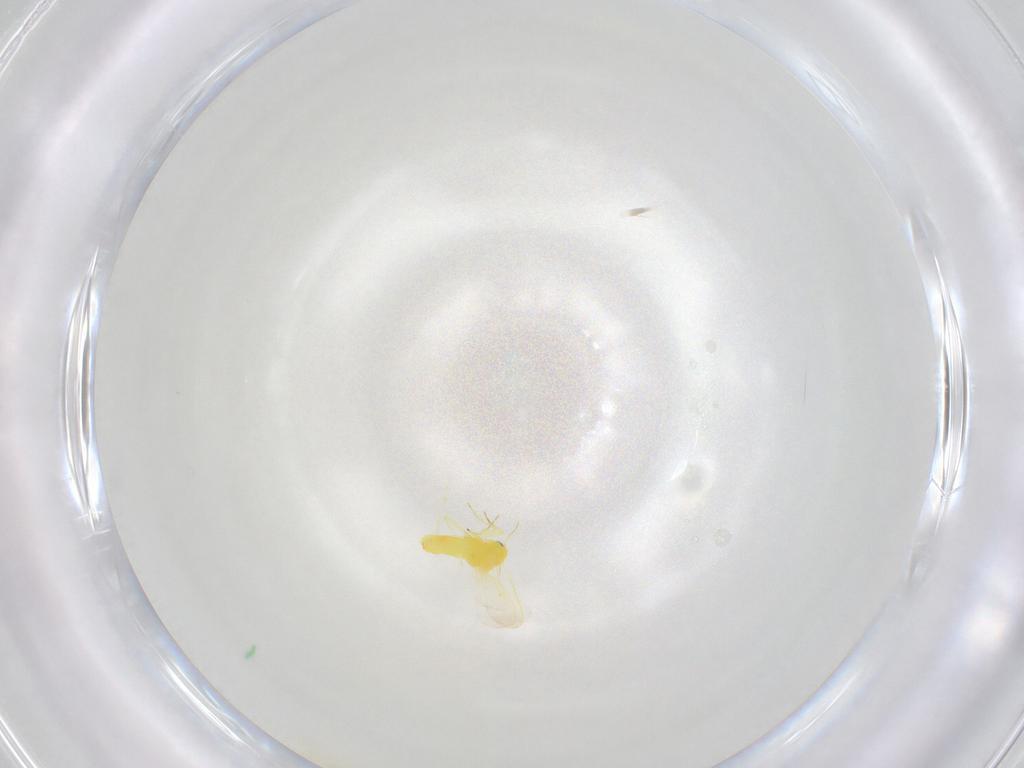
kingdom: Animalia
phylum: Arthropoda
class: Insecta
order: Hemiptera
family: Aleyrodidae
